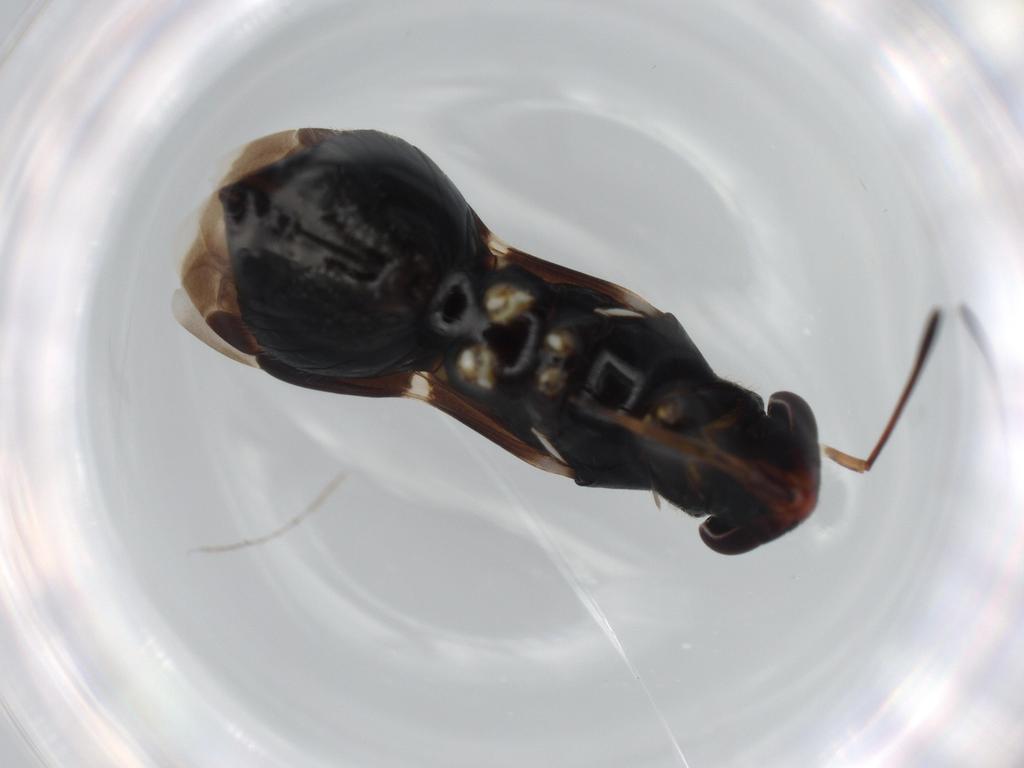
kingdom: Animalia
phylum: Arthropoda
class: Insecta
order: Hemiptera
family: Miridae
